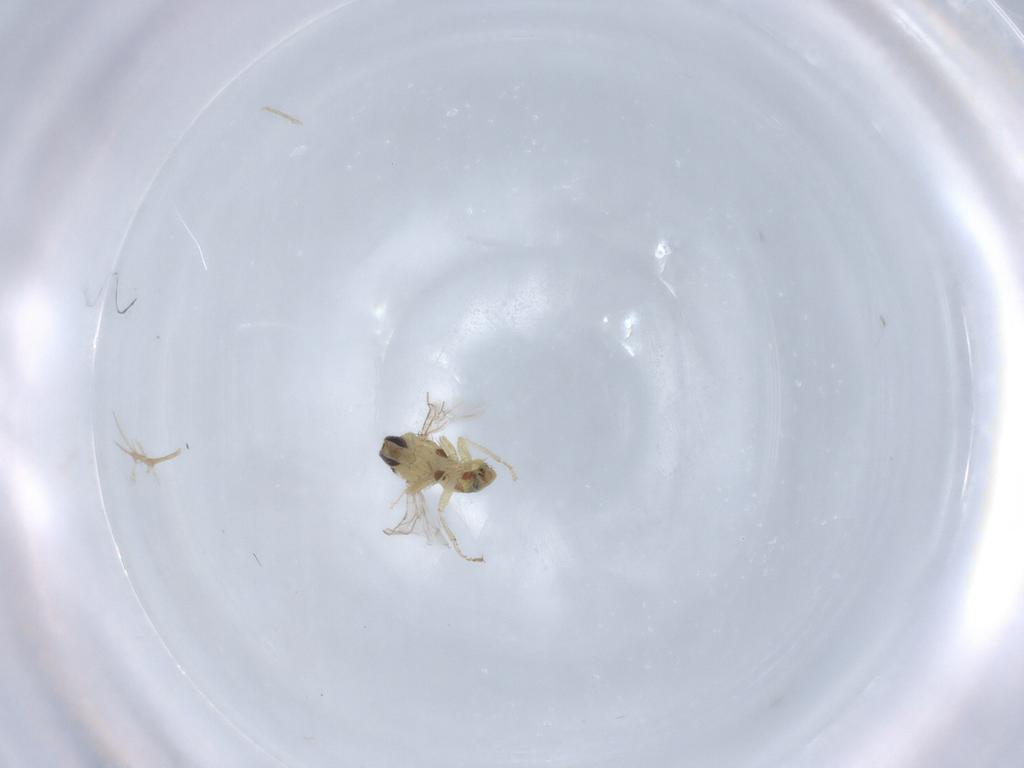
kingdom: Animalia
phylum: Arthropoda
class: Insecta
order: Diptera
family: Agromyzidae
